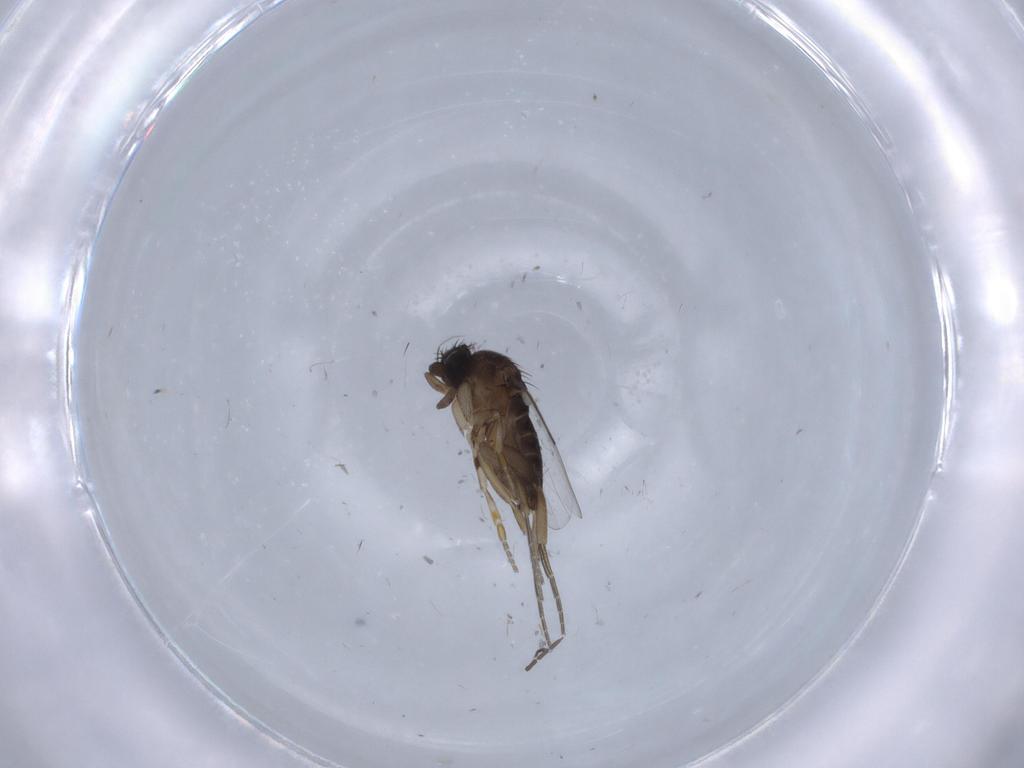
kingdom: Animalia
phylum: Arthropoda
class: Insecta
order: Diptera
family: Phoridae
